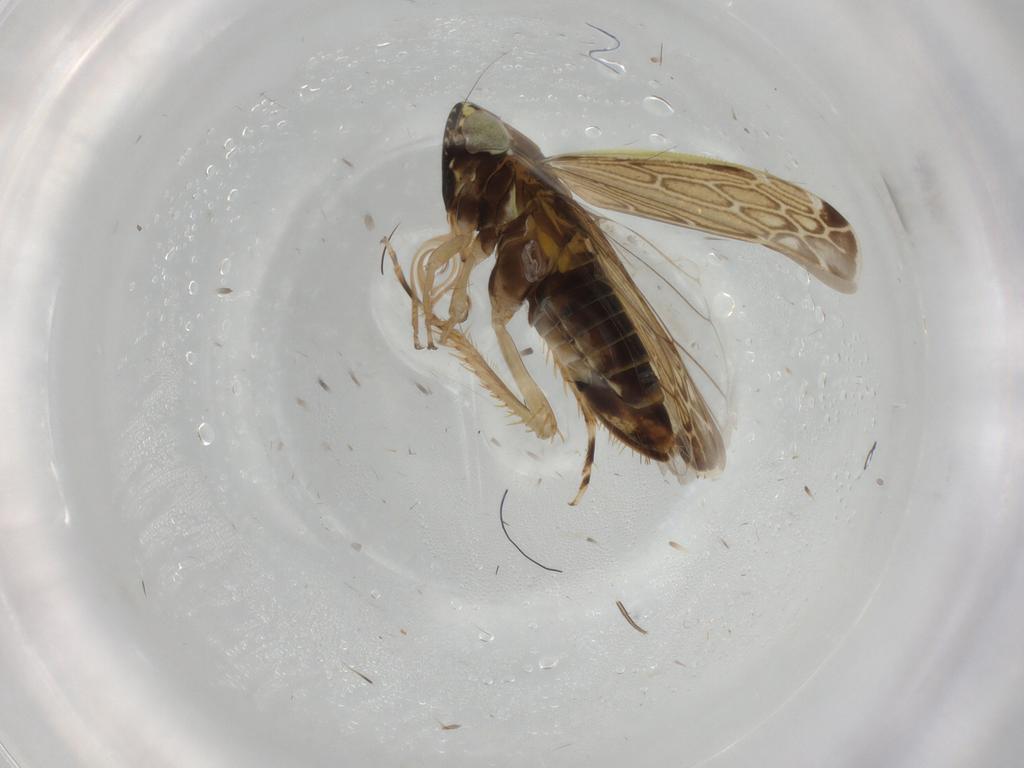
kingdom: Animalia
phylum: Arthropoda
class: Insecta
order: Hemiptera
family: Cicadellidae
